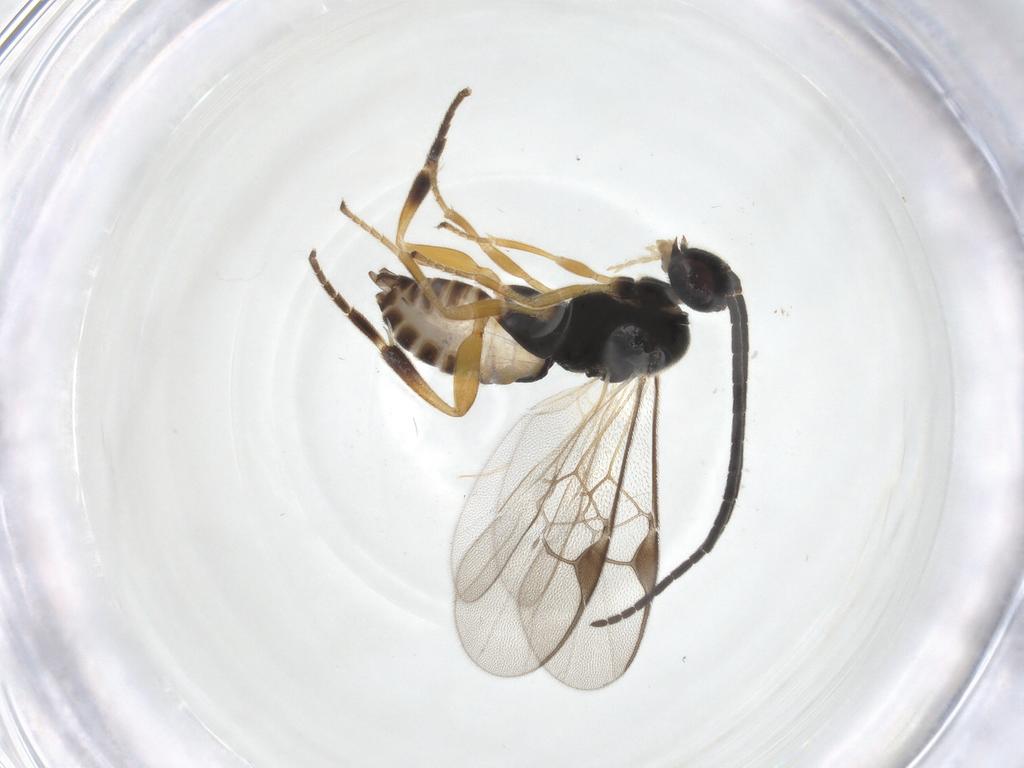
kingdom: Animalia
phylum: Arthropoda
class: Insecta
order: Hymenoptera
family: Braconidae
